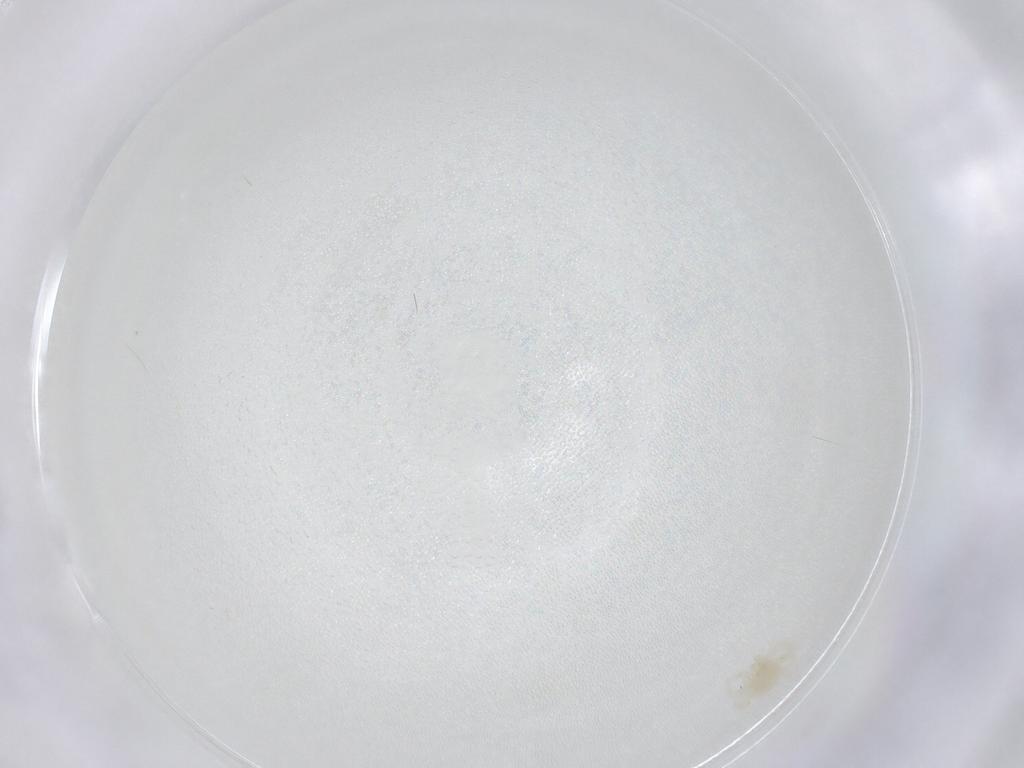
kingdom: Animalia
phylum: Arthropoda
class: Arachnida
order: Trombidiformes
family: Anystidae
